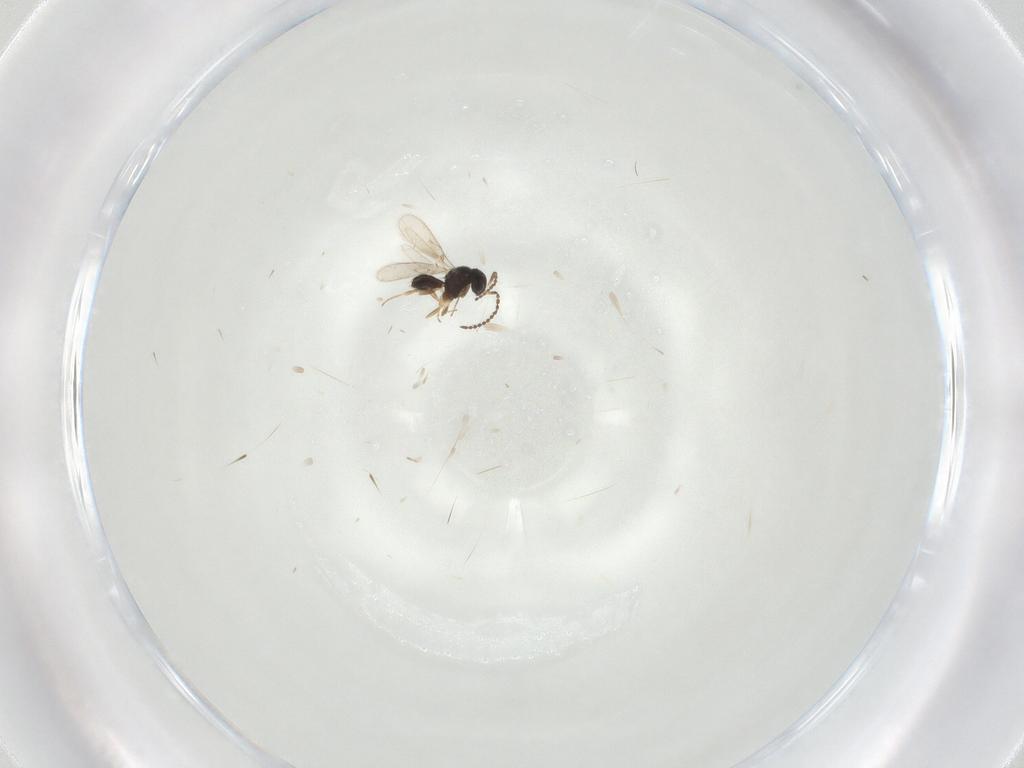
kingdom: Animalia
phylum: Arthropoda
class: Insecta
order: Hymenoptera
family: Scelionidae
